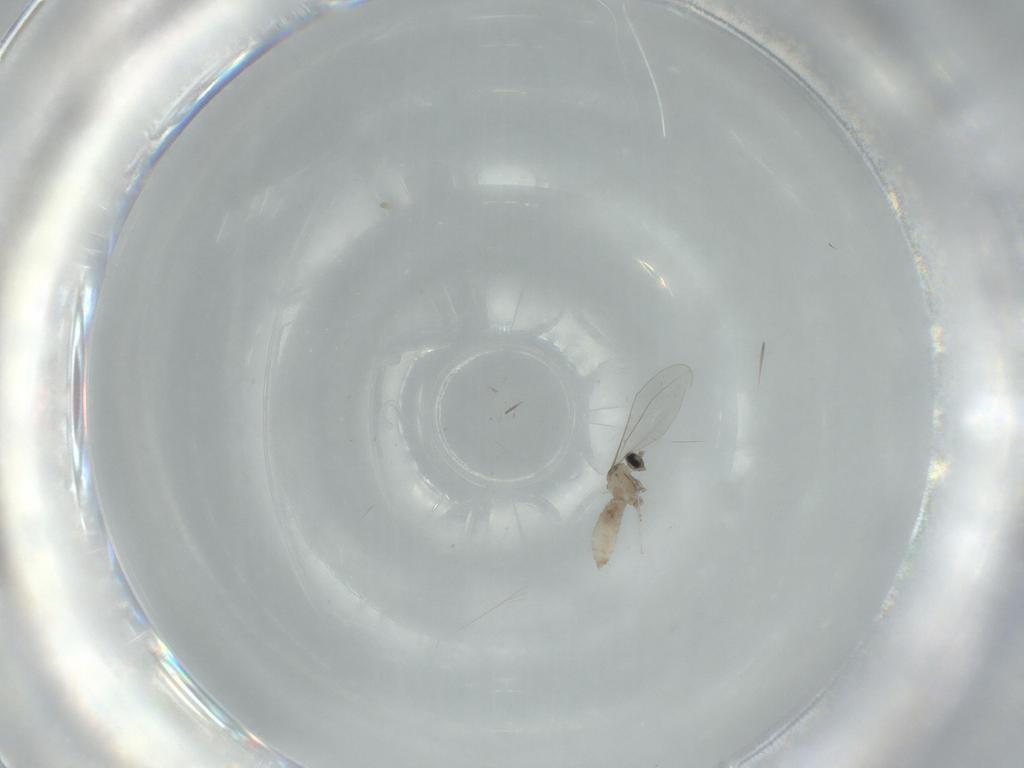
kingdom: Animalia
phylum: Arthropoda
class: Insecta
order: Diptera
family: Cecidomyiidae
